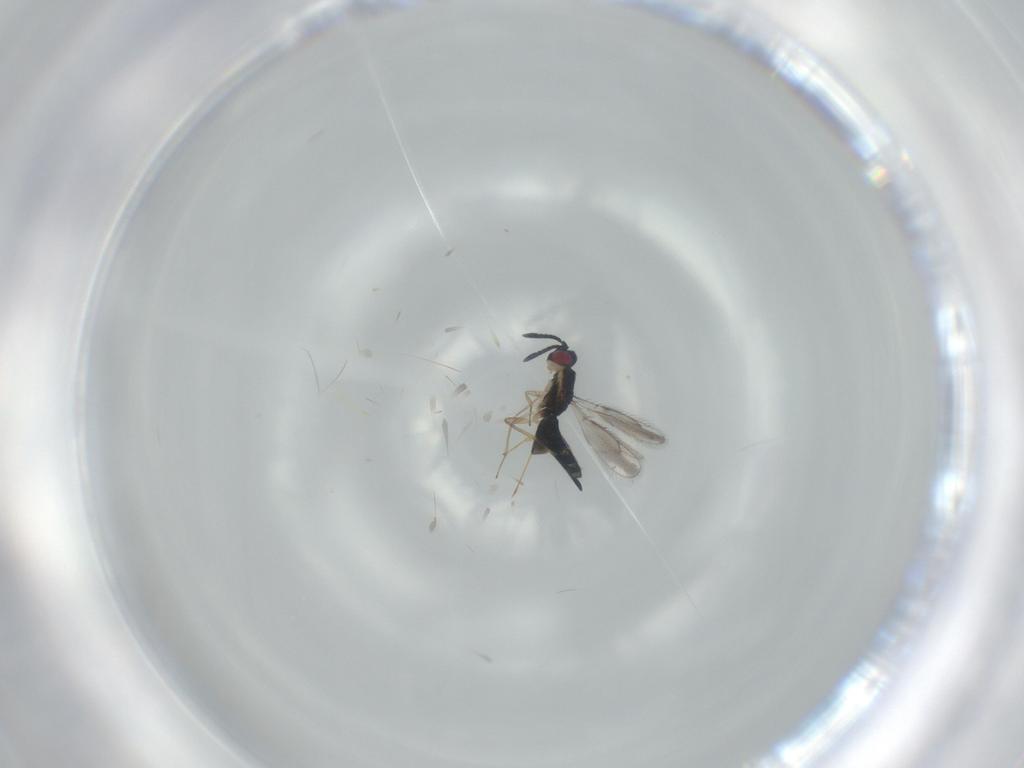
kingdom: Animalia
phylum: Arthropoda
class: Insecta
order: Hymenoptera
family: Pteromalidae
